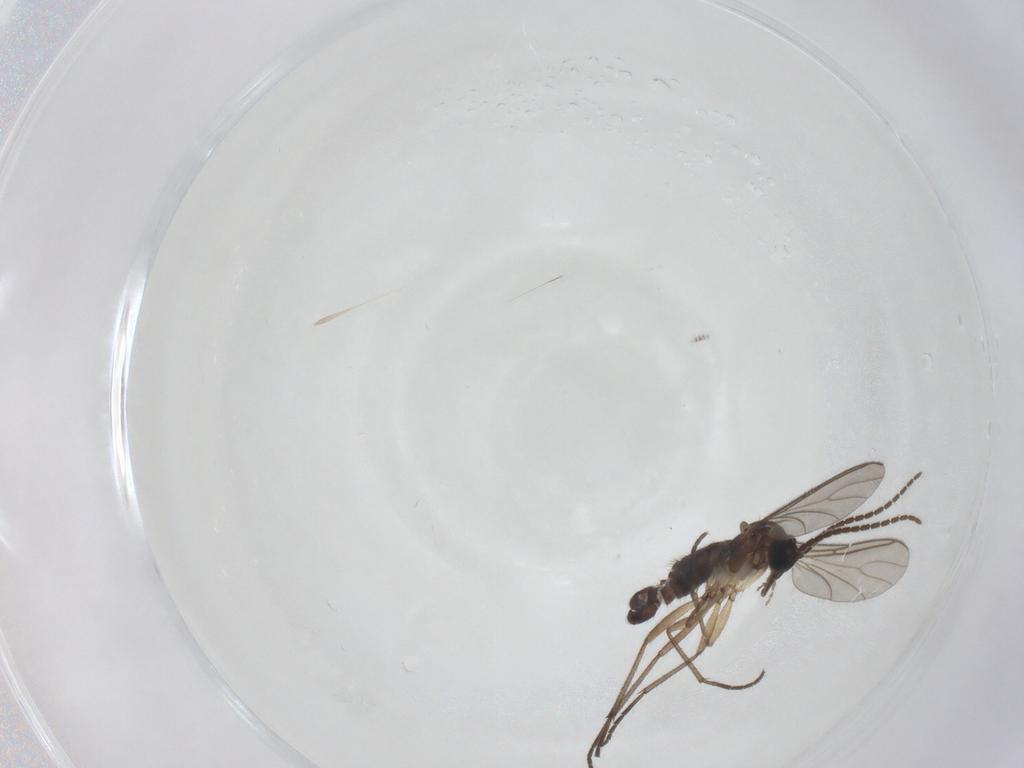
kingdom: Animalia
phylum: Arthropoda
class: Insecta
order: Diptera
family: Sciaridae
